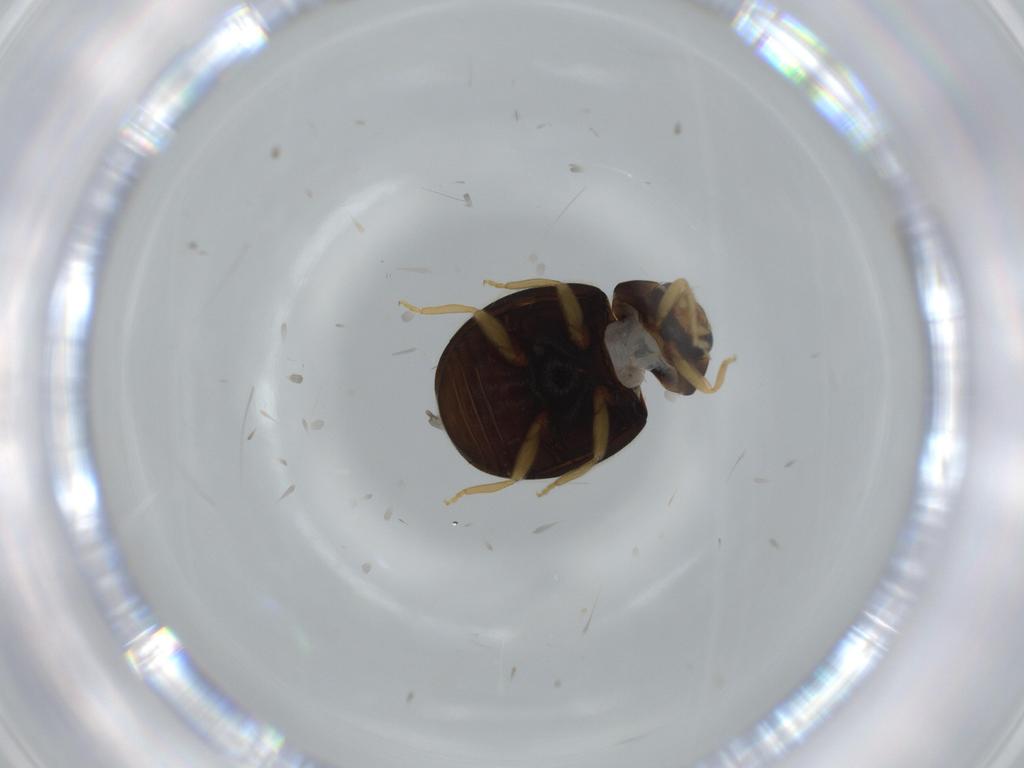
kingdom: Animalia
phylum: Arthropoda
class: Insecta
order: Coleoptera
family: Coccinellidae
